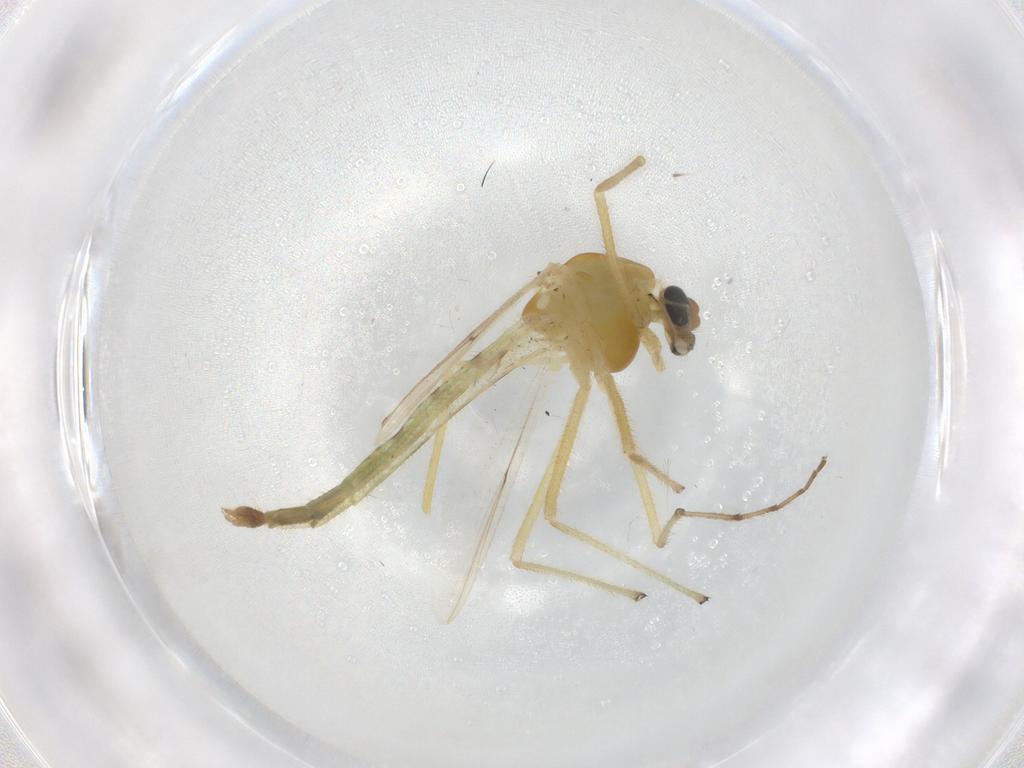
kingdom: Animalia
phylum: Arthropoda
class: Insecta
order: Diptera
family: Chironomidae
